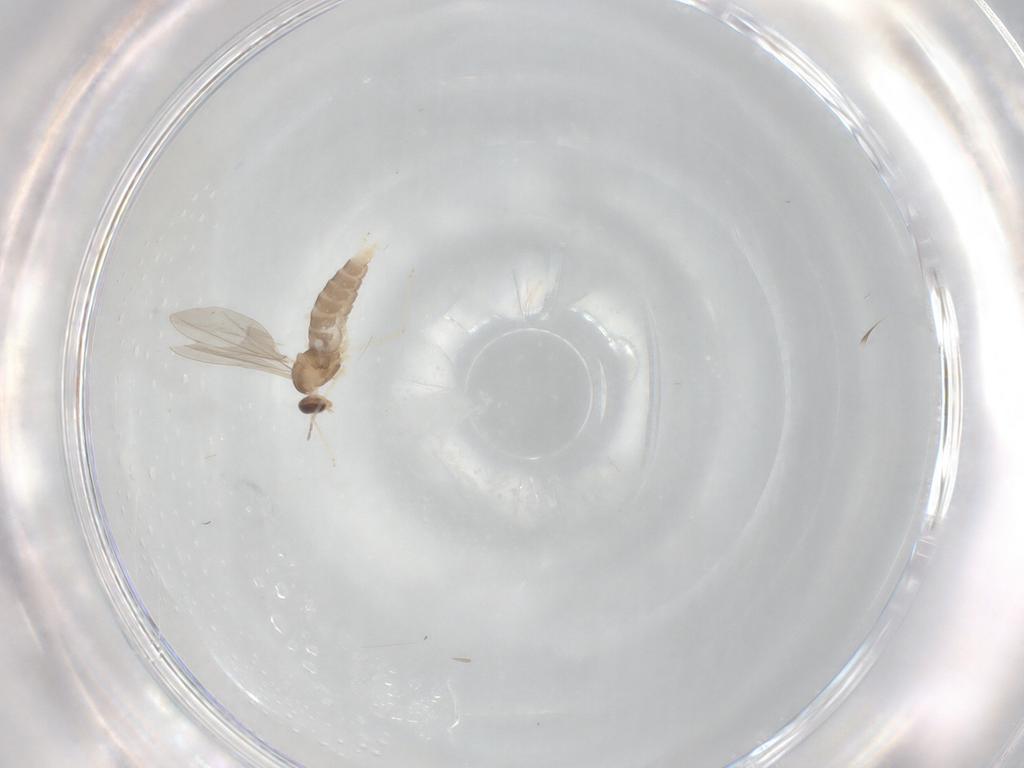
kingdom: Animalia
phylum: Arthropoda
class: Insecta
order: Diptera
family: Cecidomyiidae
